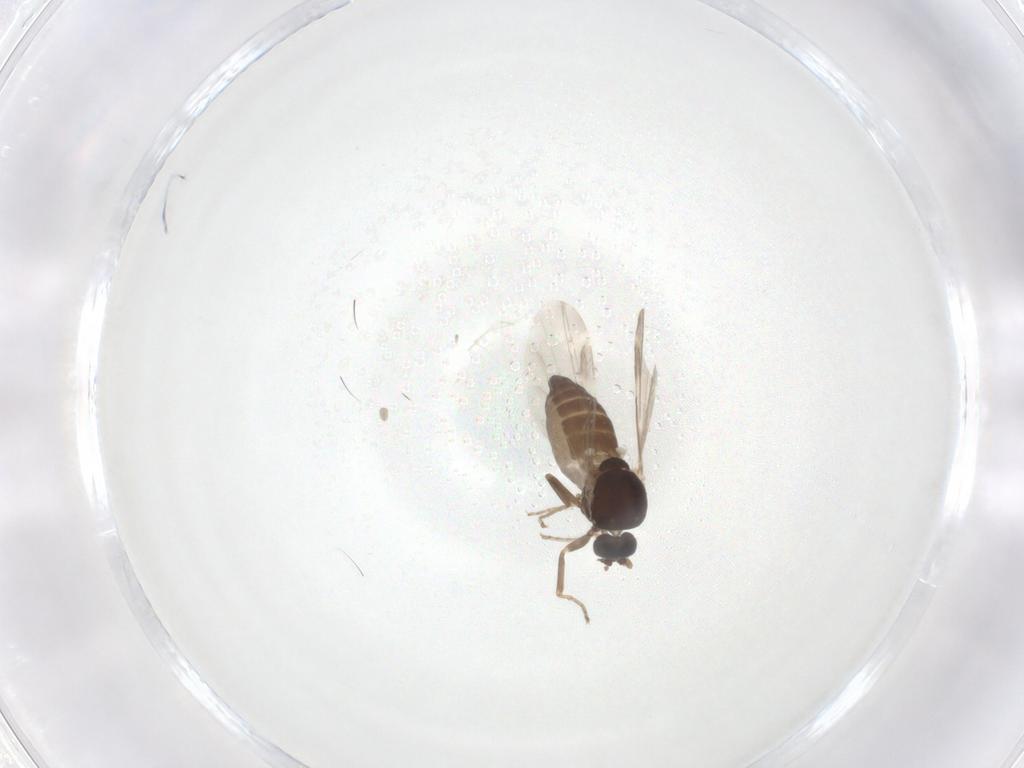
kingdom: Animalia
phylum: Arthropoda
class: Insecta
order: Diptera
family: Ceratopogonidae
